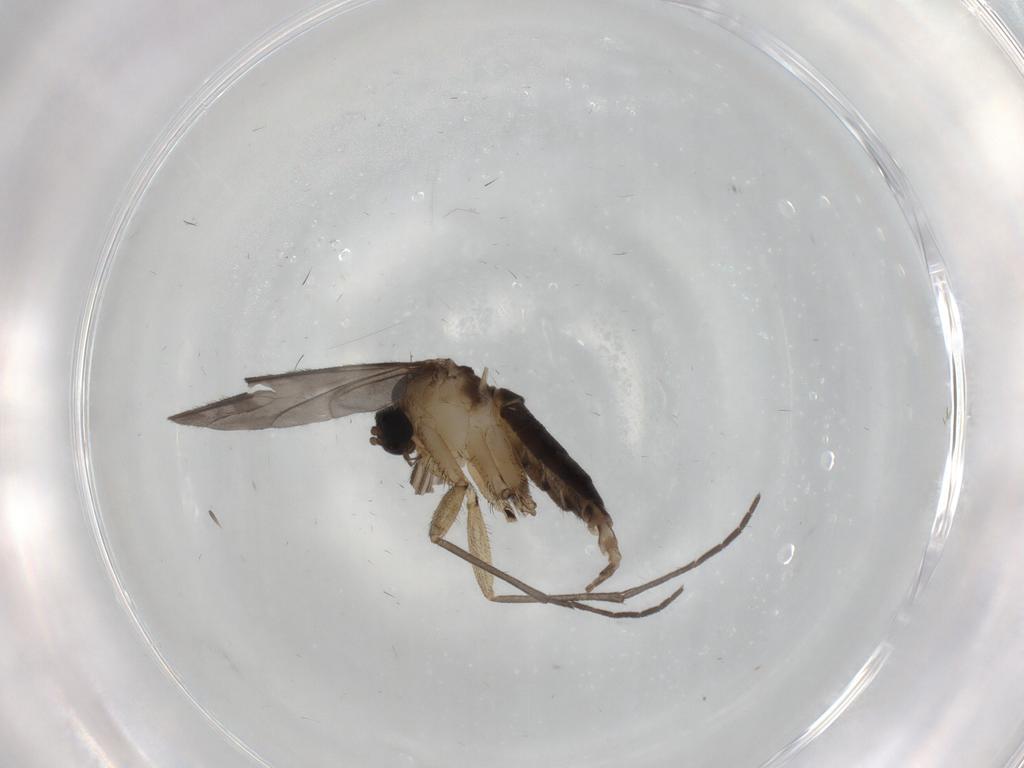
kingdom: Animalia
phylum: Arthropoda
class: Insecta
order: Diptera
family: Sciaridae
